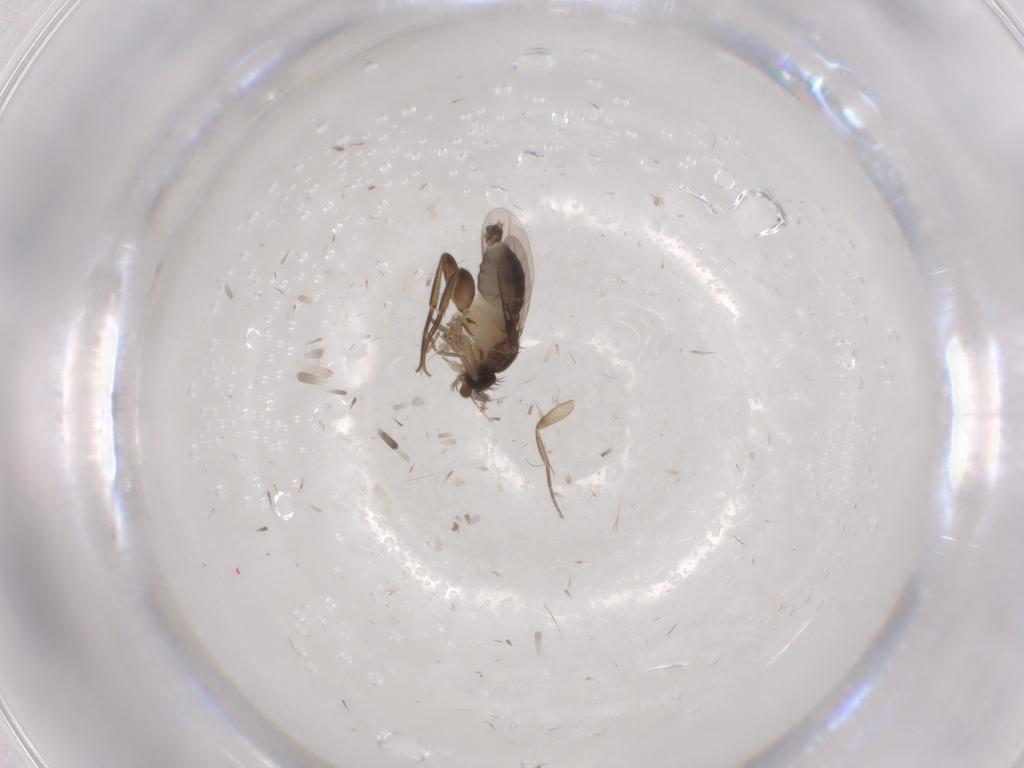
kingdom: Animalia
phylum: Arthropoda
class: Insecta
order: Diptera
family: Phoridae
